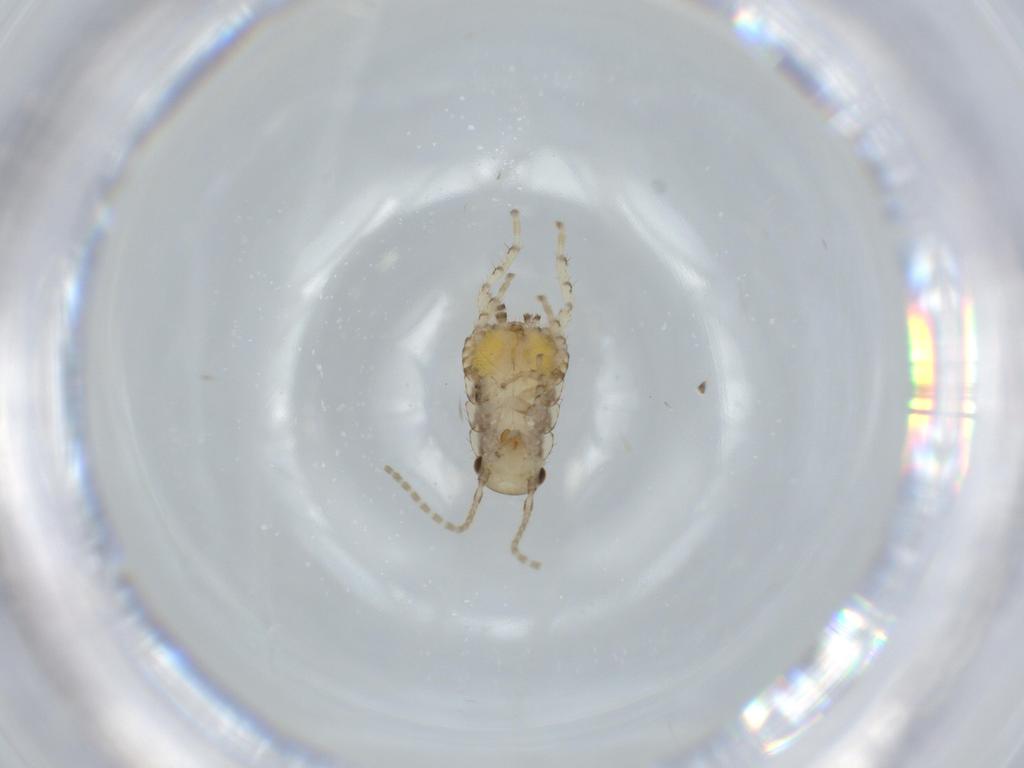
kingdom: Animalia
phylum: Arthropoda
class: Insecta
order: Blattodea
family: Ectobiidae
